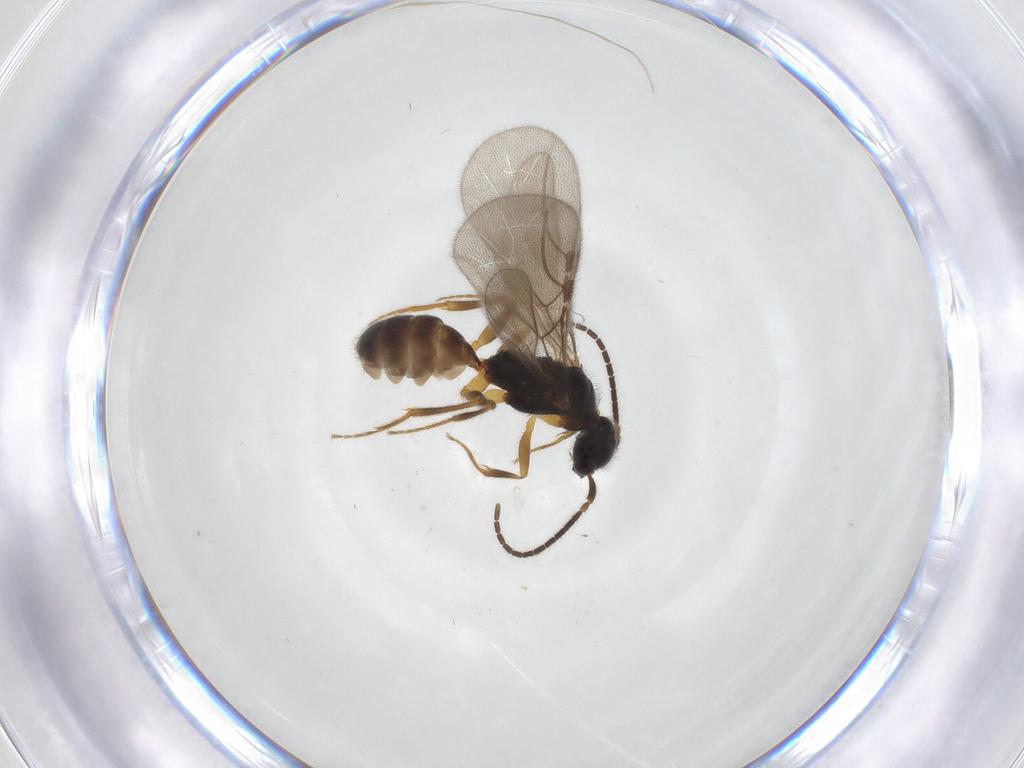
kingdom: Animalia
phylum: Arthropoda
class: Insecta
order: Hymenoptera
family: Bethylidae
